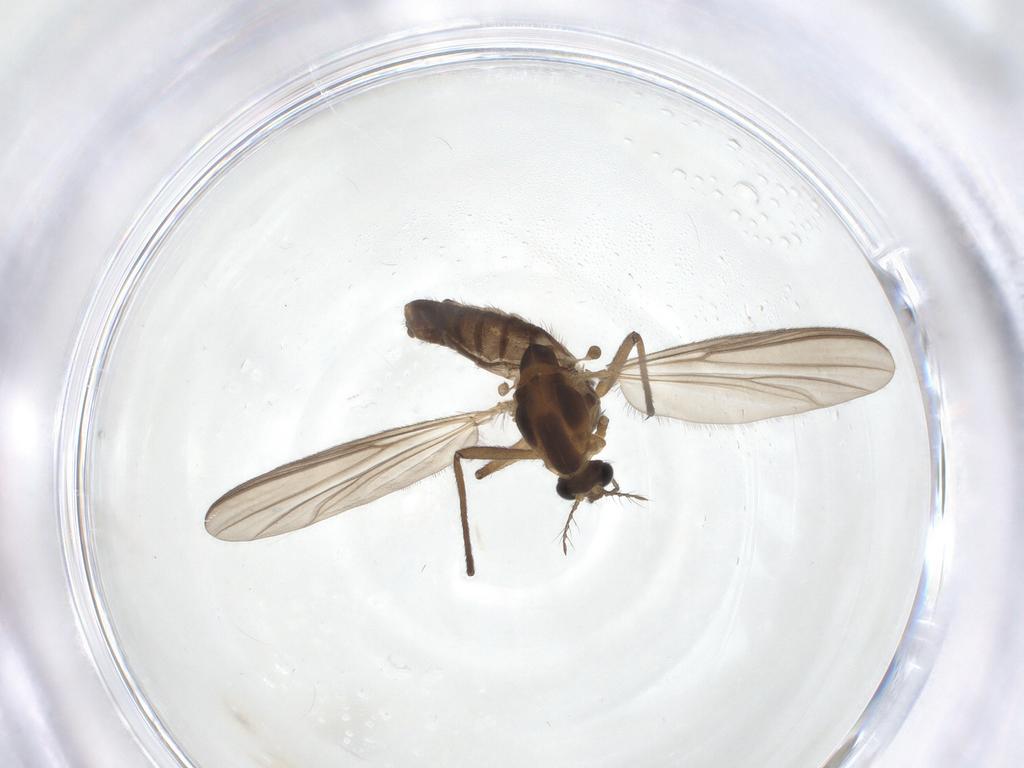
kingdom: Animalia
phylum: Arthropoda
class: Insecta
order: Diptera
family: Chironomidae
